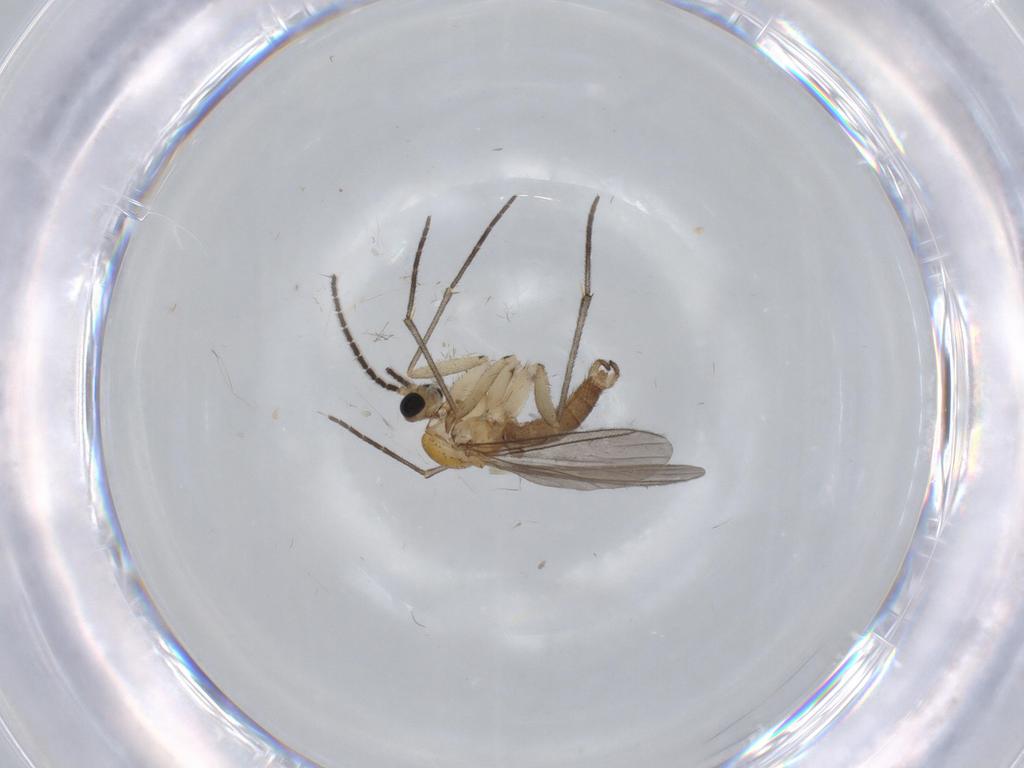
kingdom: Animalia
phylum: Arthropoda
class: Insecta
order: Diptera
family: Sciaridae
